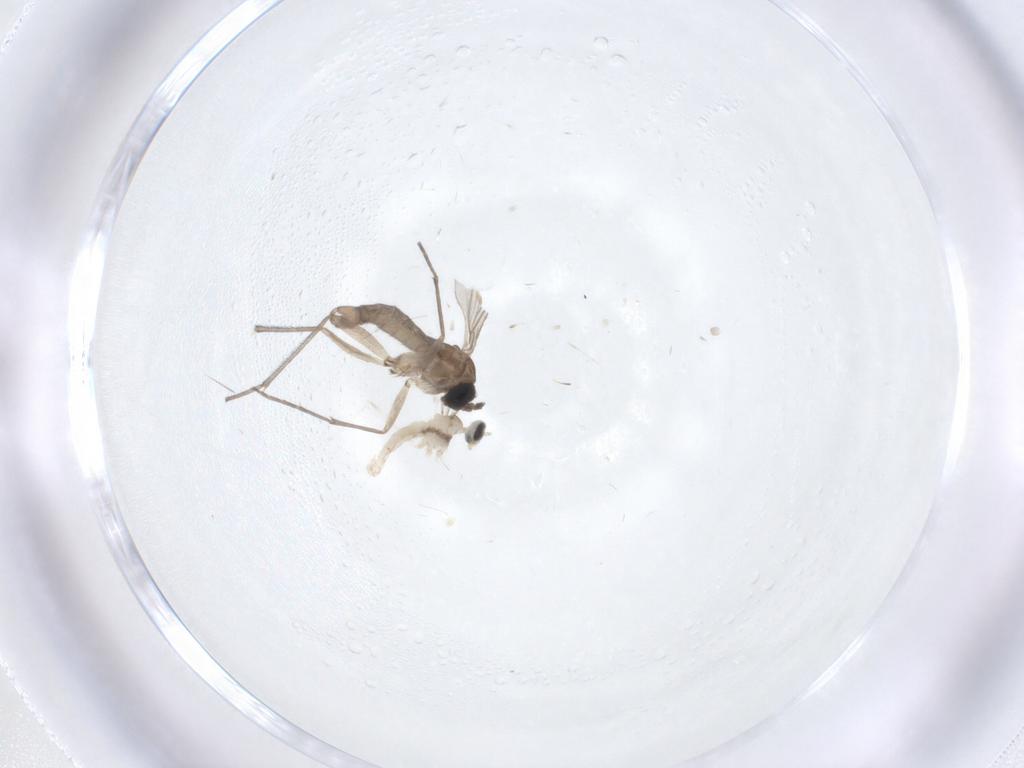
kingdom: Animalia
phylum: Arthropoda
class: Insecta
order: Diptera
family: Sciaridae
